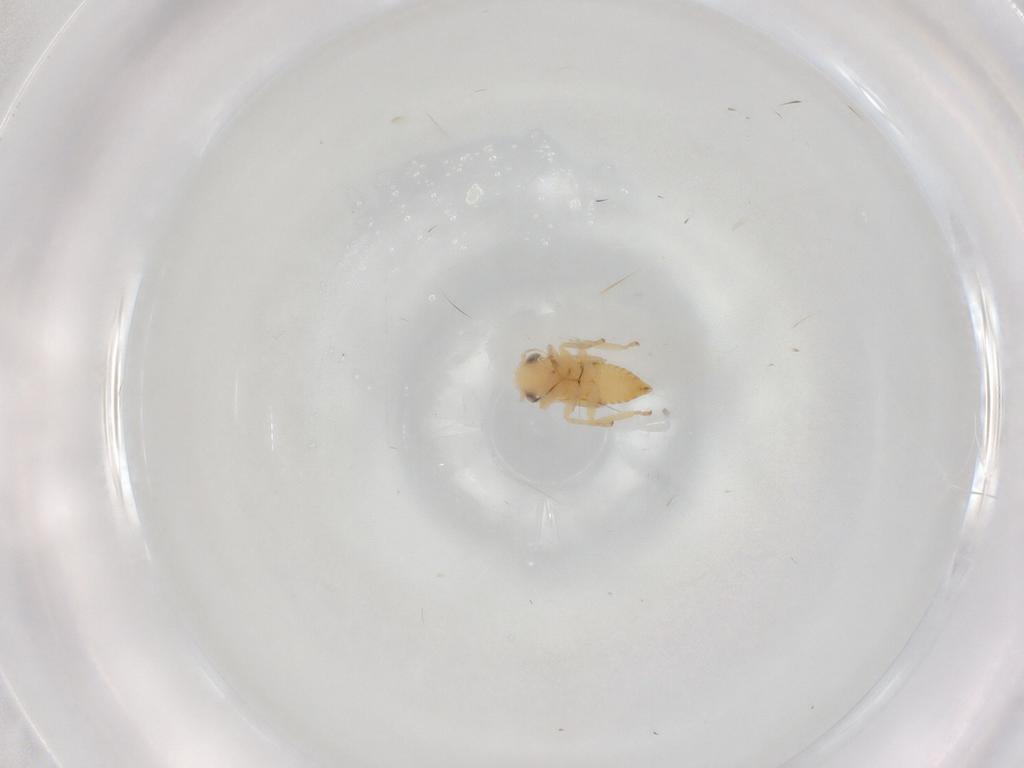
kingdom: Animalia
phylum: Arthropoda
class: Insecta
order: Hemiptera
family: Cicadellidae
